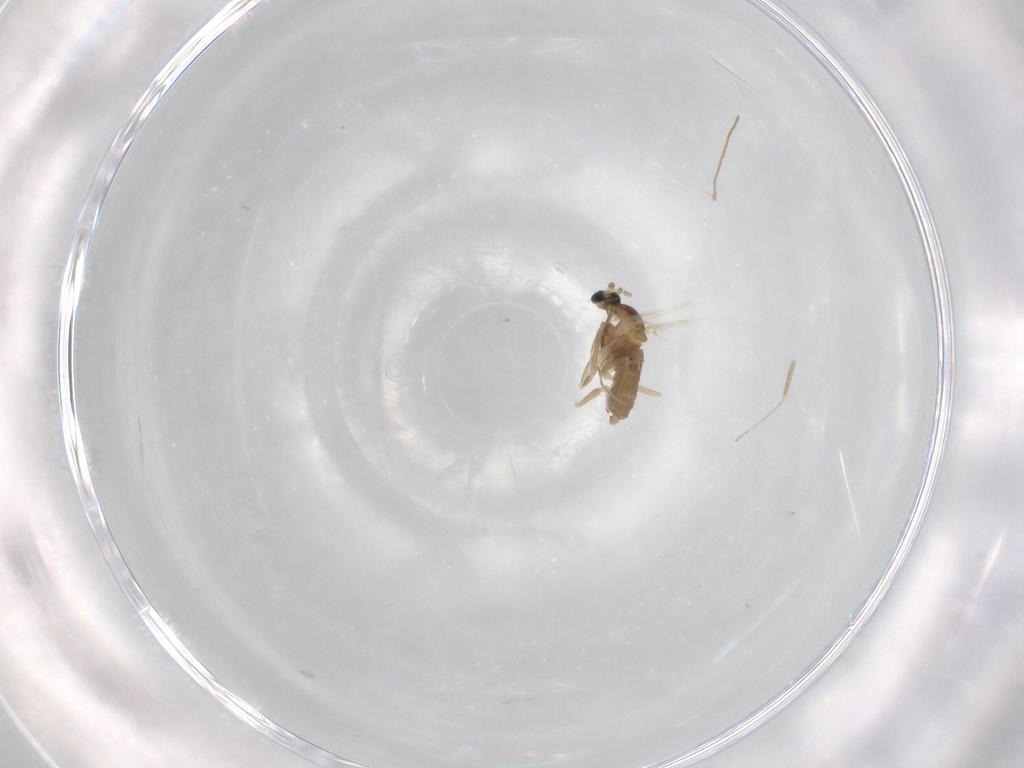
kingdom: Animalia
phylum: Arthropoda
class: Insecta
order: Diptera
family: Cecidomyiidae
